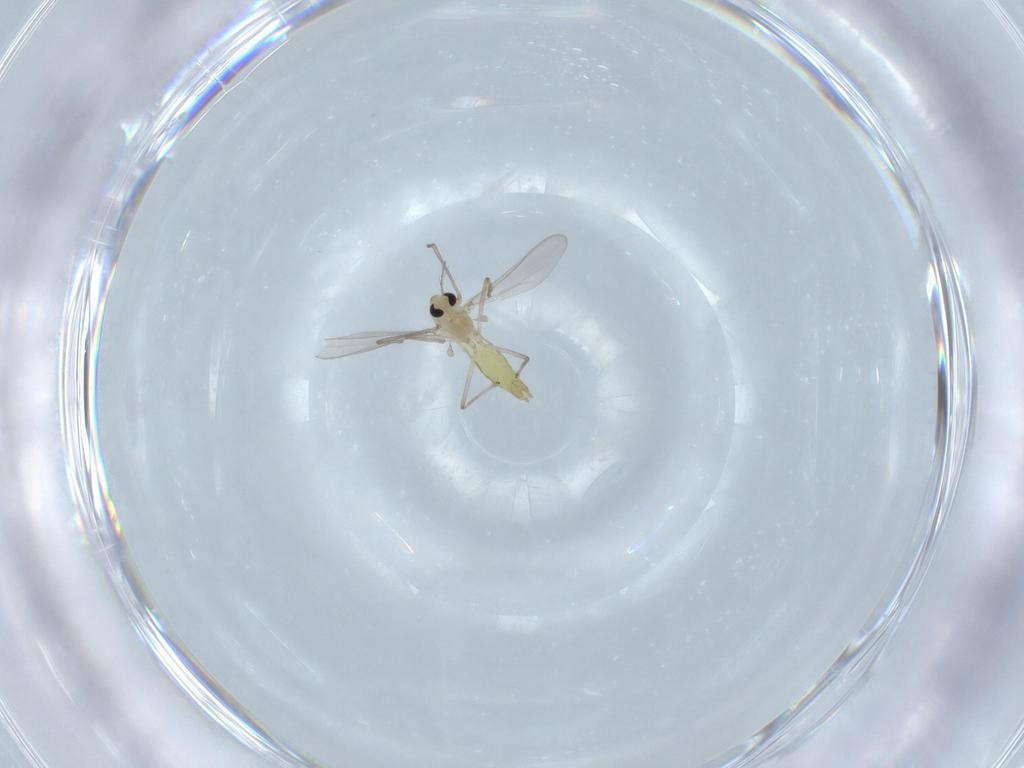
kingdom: Animalia
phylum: Arthropoda
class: Insecta
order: Diptera
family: Chironomidae
